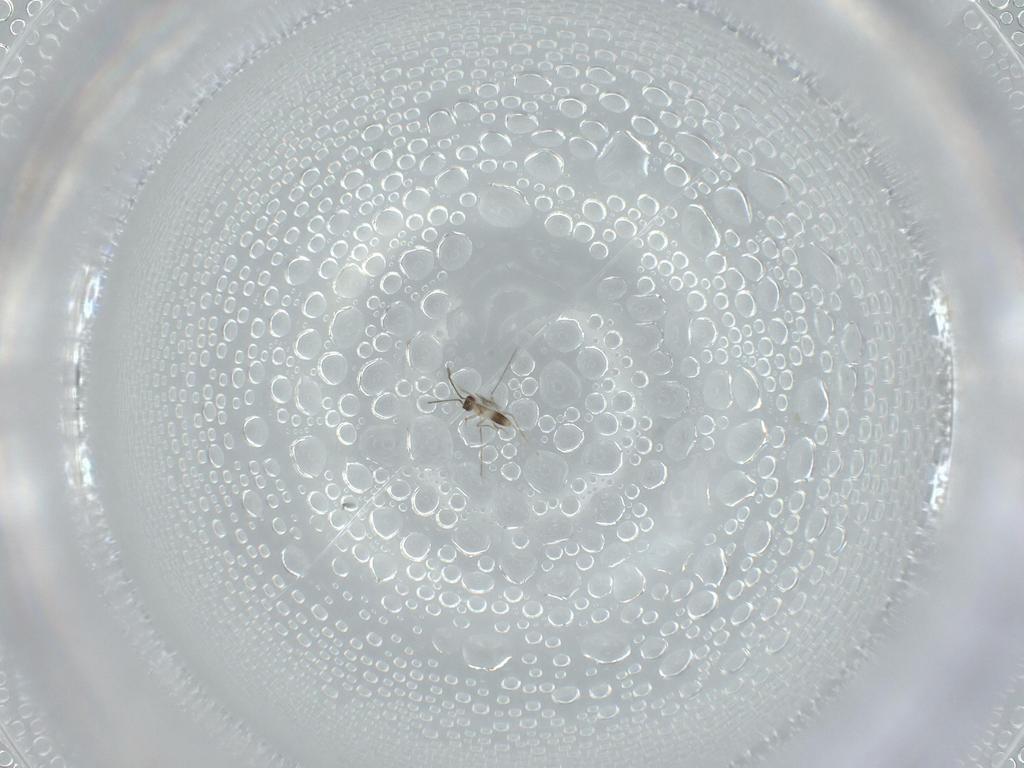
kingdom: Animalia
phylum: Arthropoda
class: Insecta
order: Hymenoptera
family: Mymaridae
